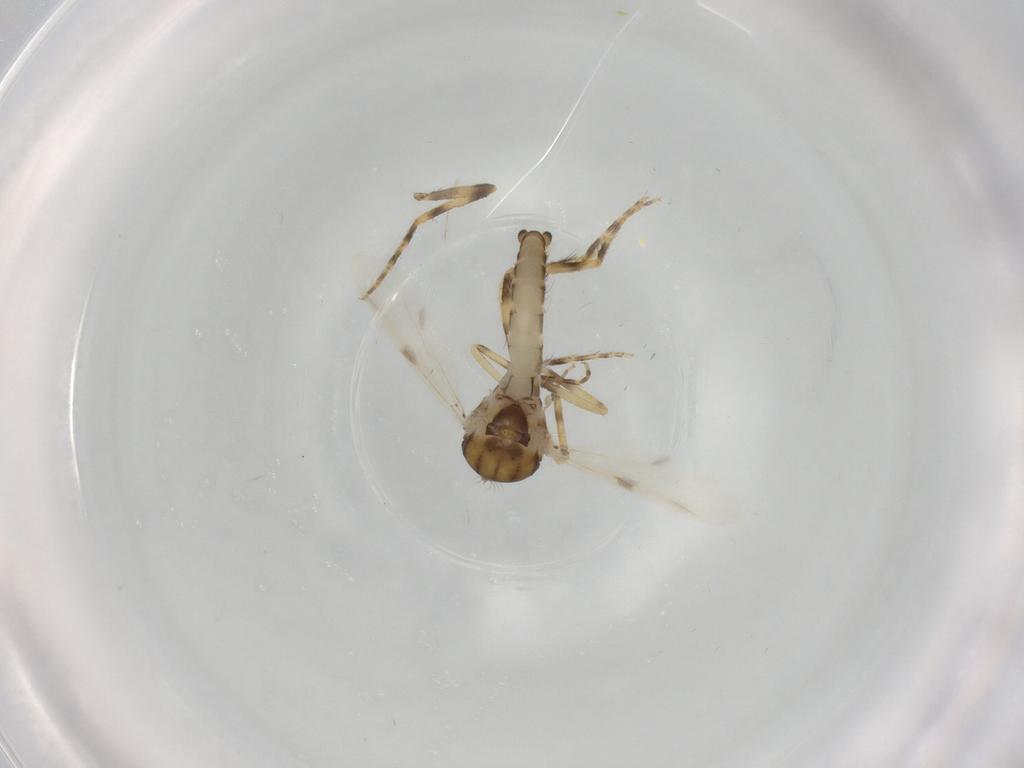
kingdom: Animalia
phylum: Arthropoda
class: Insecta
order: Diptera
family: Ceratopogonidae
